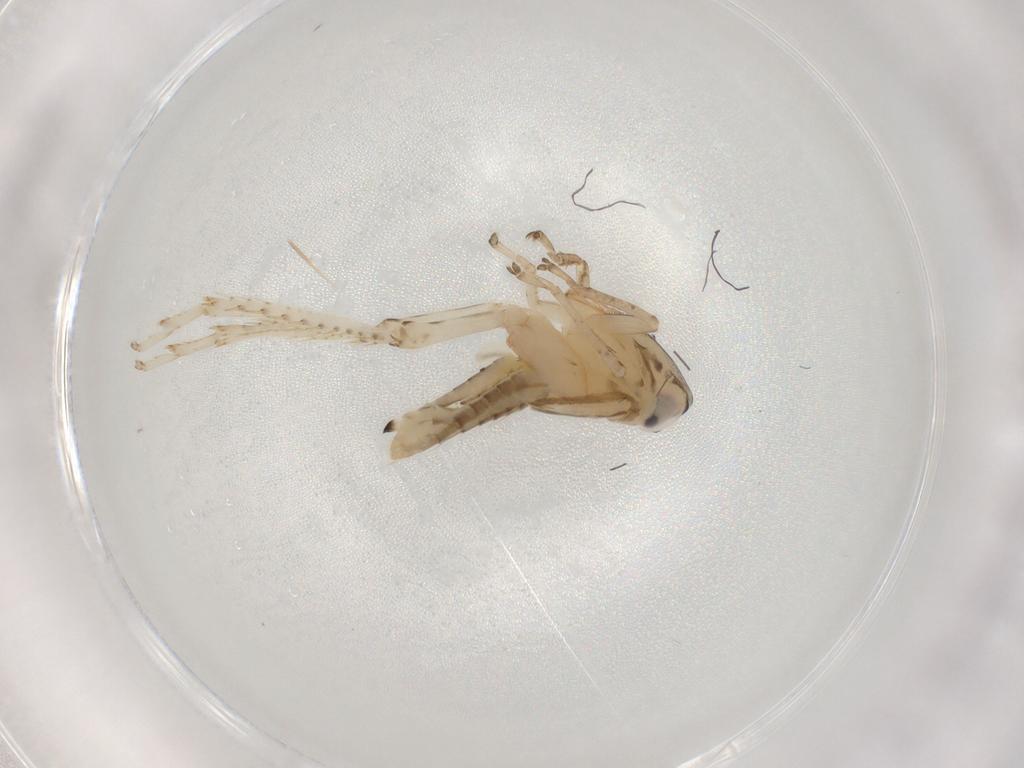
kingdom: Animalia
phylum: Arthropoda
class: Insecta
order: Hemiptera
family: Cicadellidae
